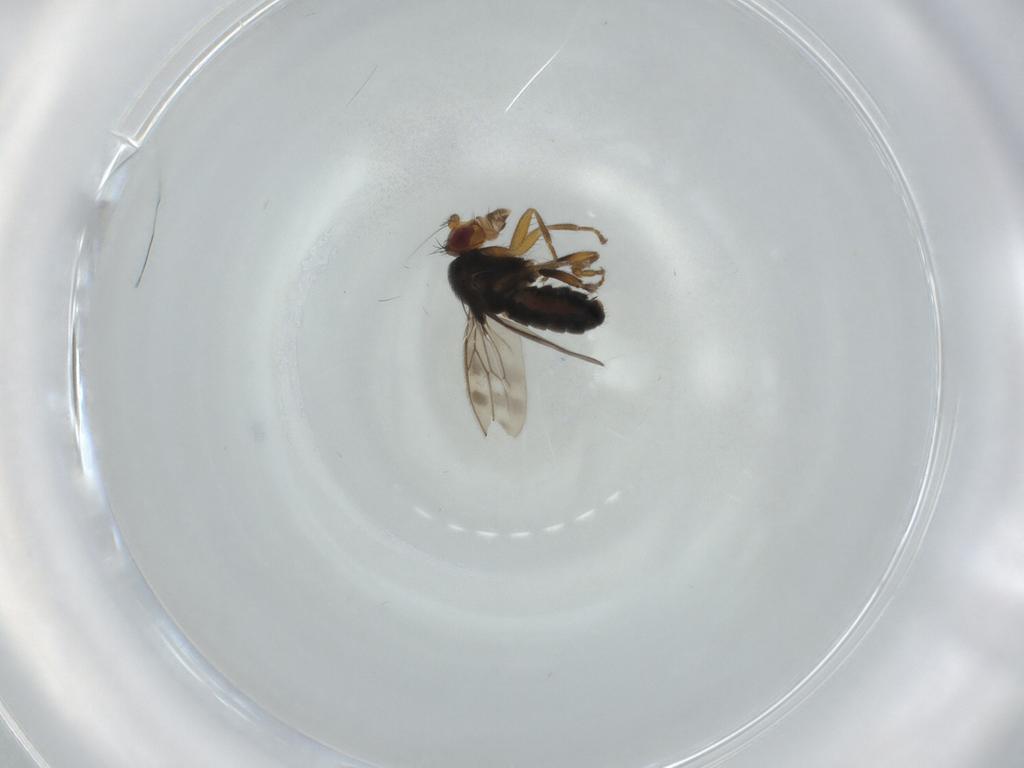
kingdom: Animalia
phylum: Arthropoda
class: Insecta
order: Diptera
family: Sphaeroceridae
